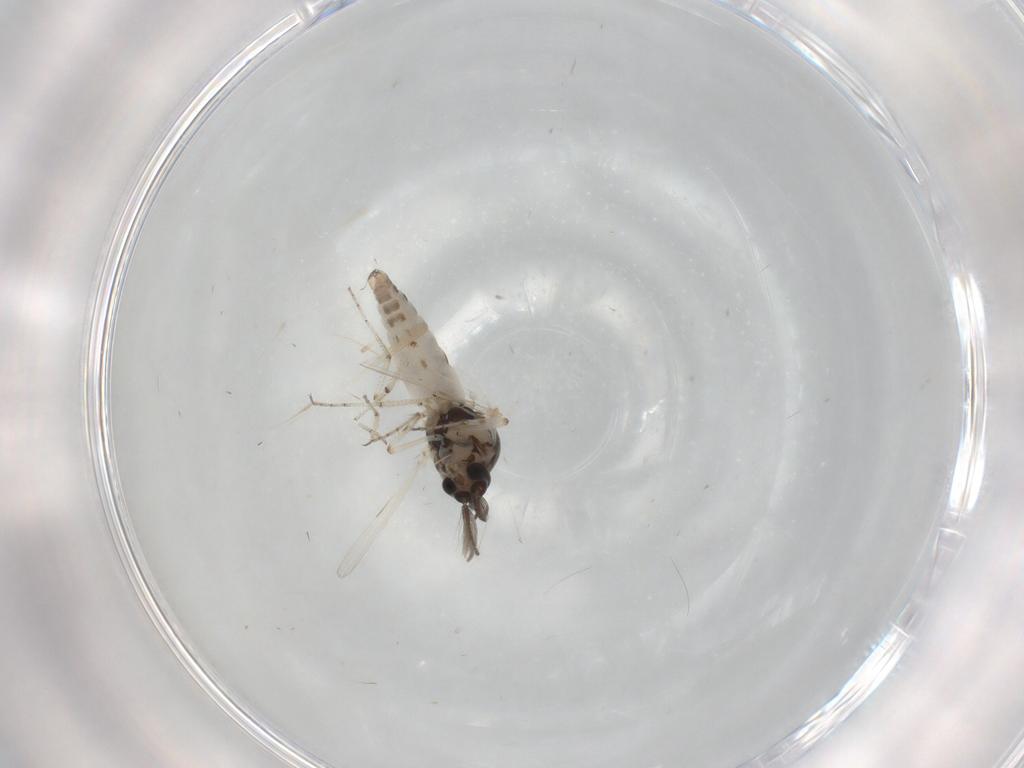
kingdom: Animalia
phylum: Arthropoda
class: Insecta
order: Diptera
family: Ceratopogonidae
